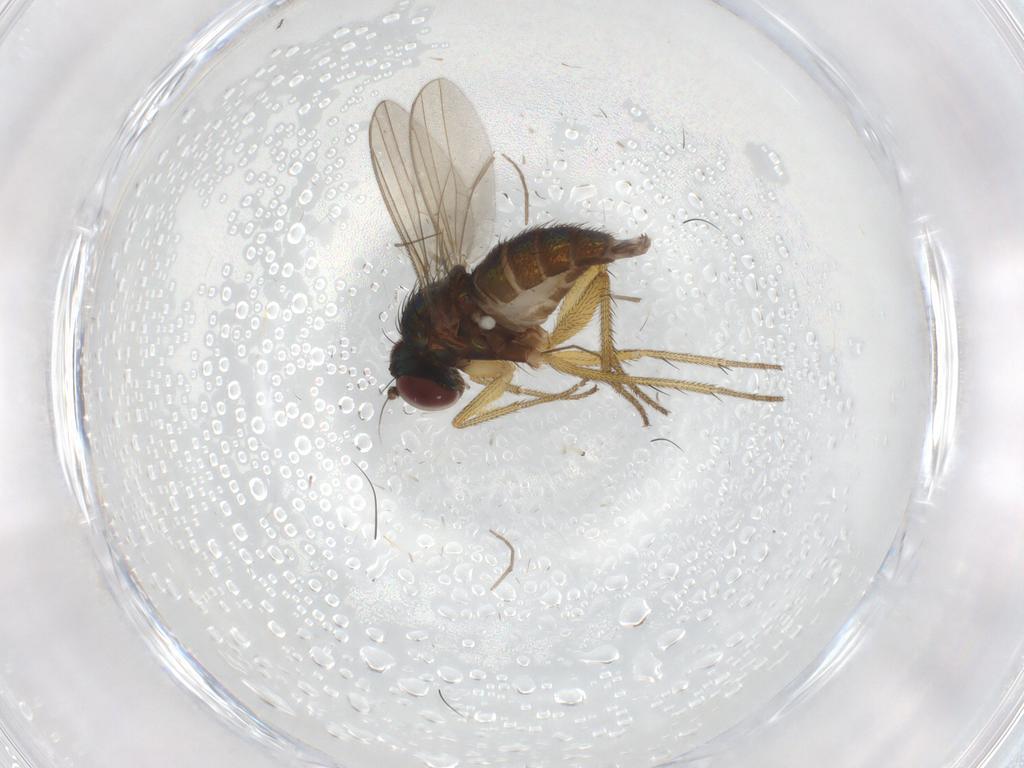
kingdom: Animalia
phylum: Arthropoda
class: Insecta
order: Diptera
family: Chironomidae
